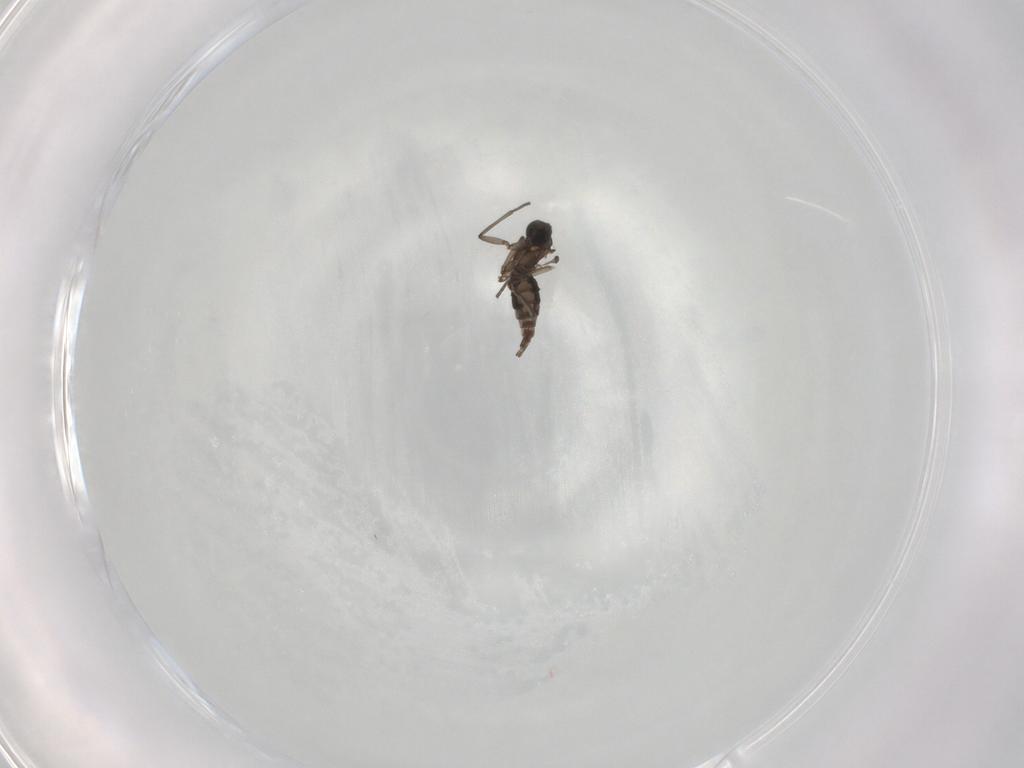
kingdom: Animalia
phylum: Arthropoda
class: Insecta
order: Diptera
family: Sciaridae
